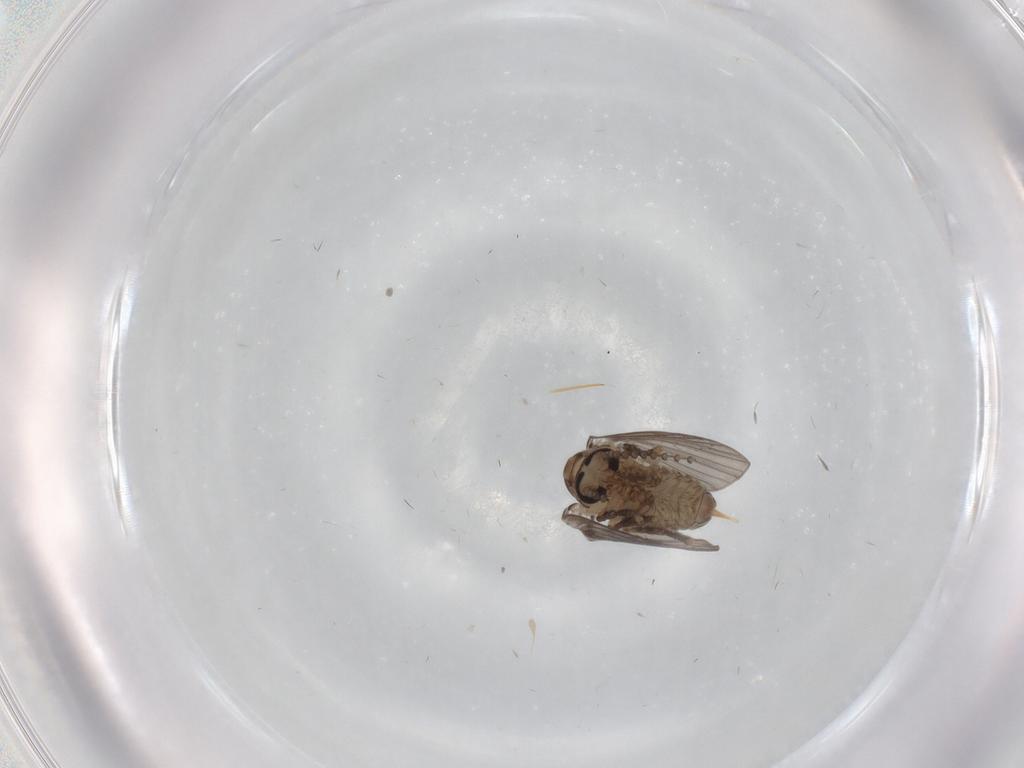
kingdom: Animalia
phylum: Arthropoda
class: Insecta
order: Diptera
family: Psychodidae
